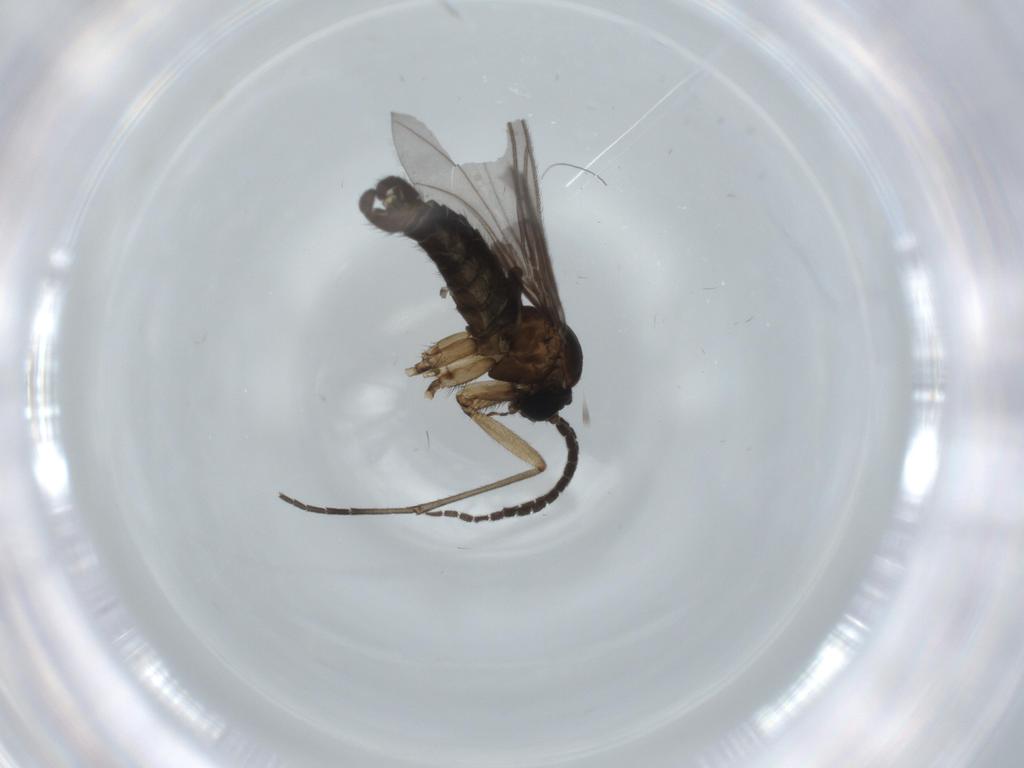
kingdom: Animalia
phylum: Arthropoda
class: Insecta
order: Diptera
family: Sciaridae
